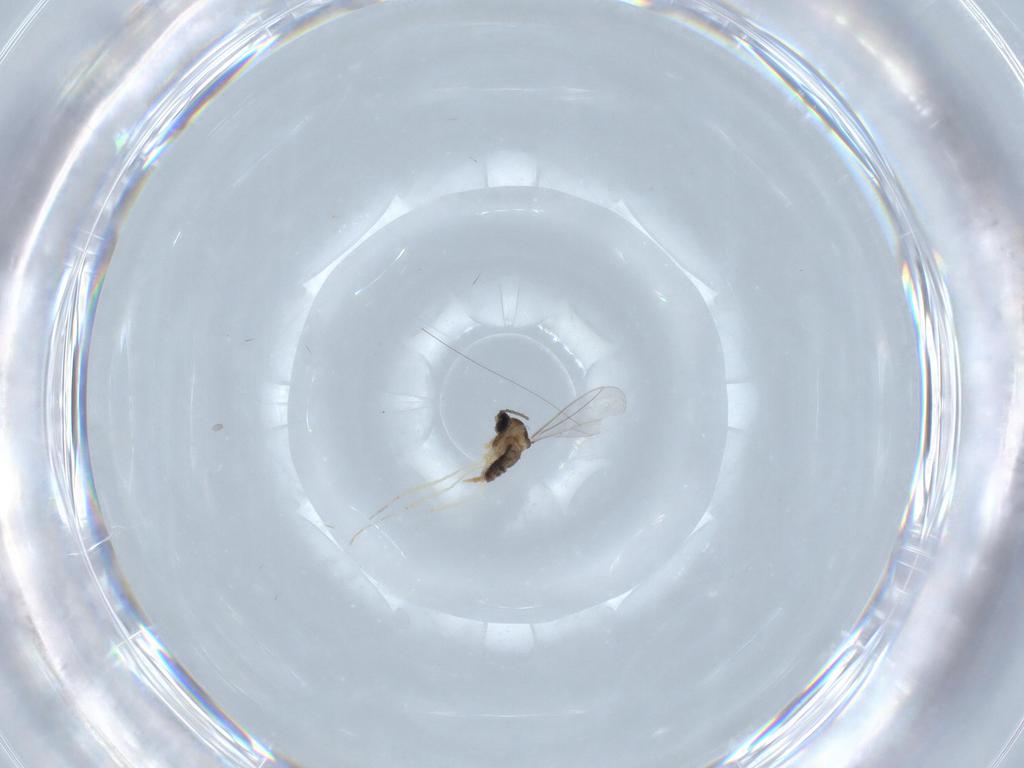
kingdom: Animalia
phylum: Arthropoda
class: Insecta
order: Diptera
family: Cecidomyiidae
